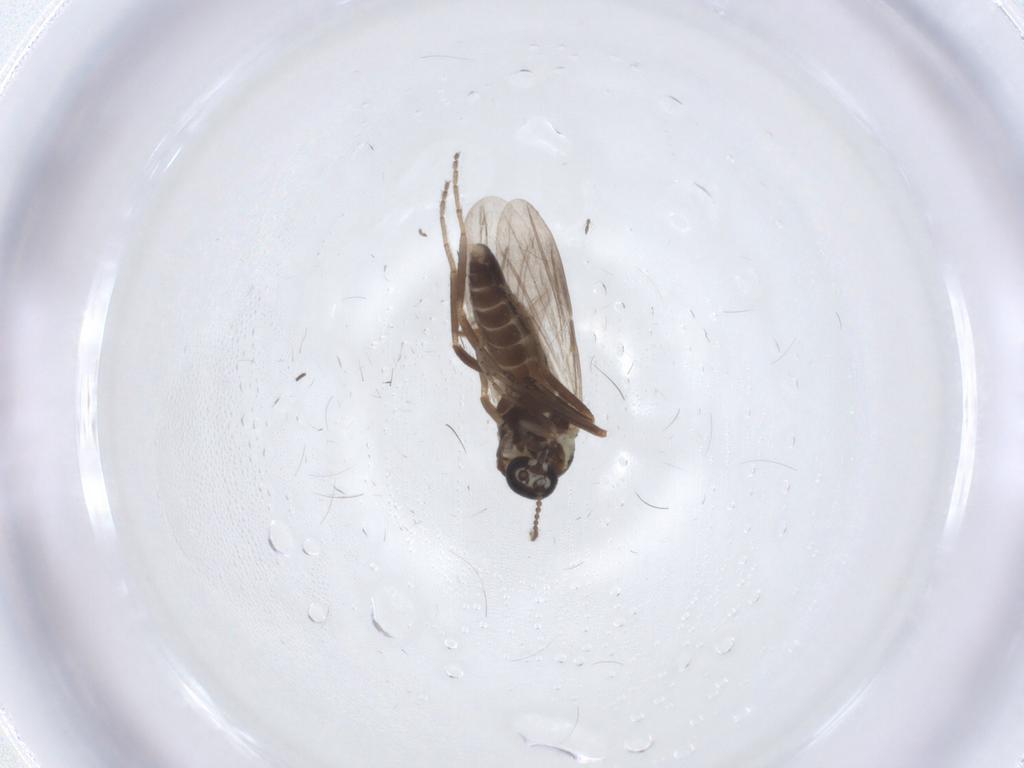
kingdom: Animalia
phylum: Arthropoda
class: Insecta
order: Diptera
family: Ceratopogonidae
